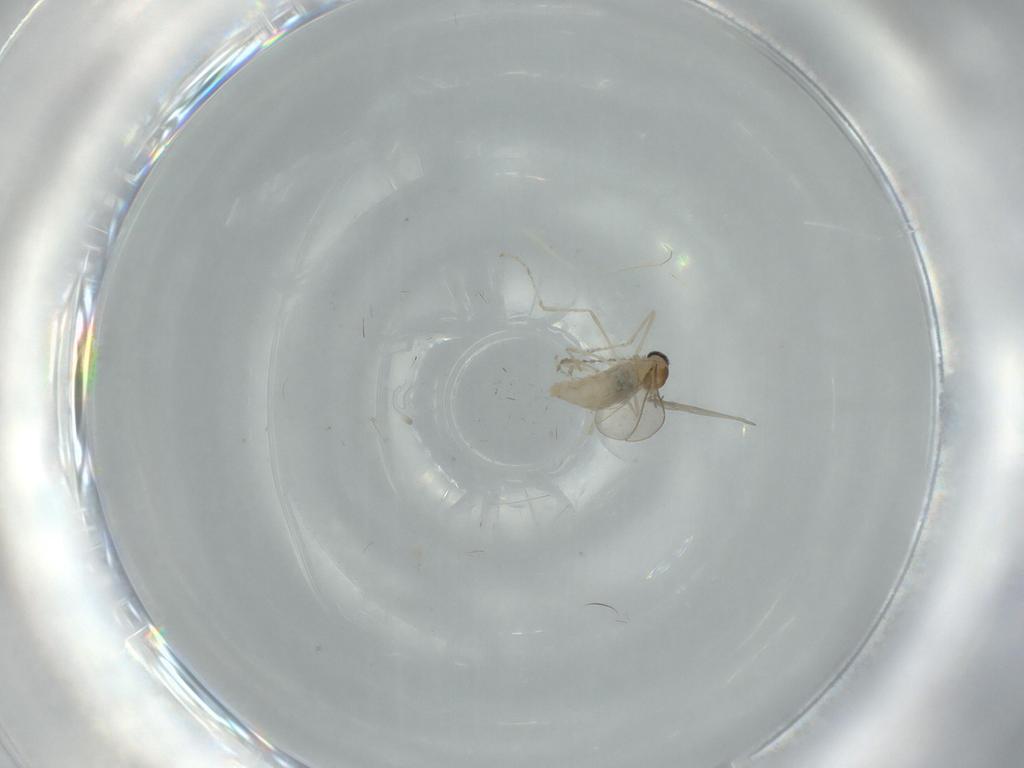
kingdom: Animalia
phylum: Arthropoda
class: Insecta
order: Diptera
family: Cecidomyiidae
